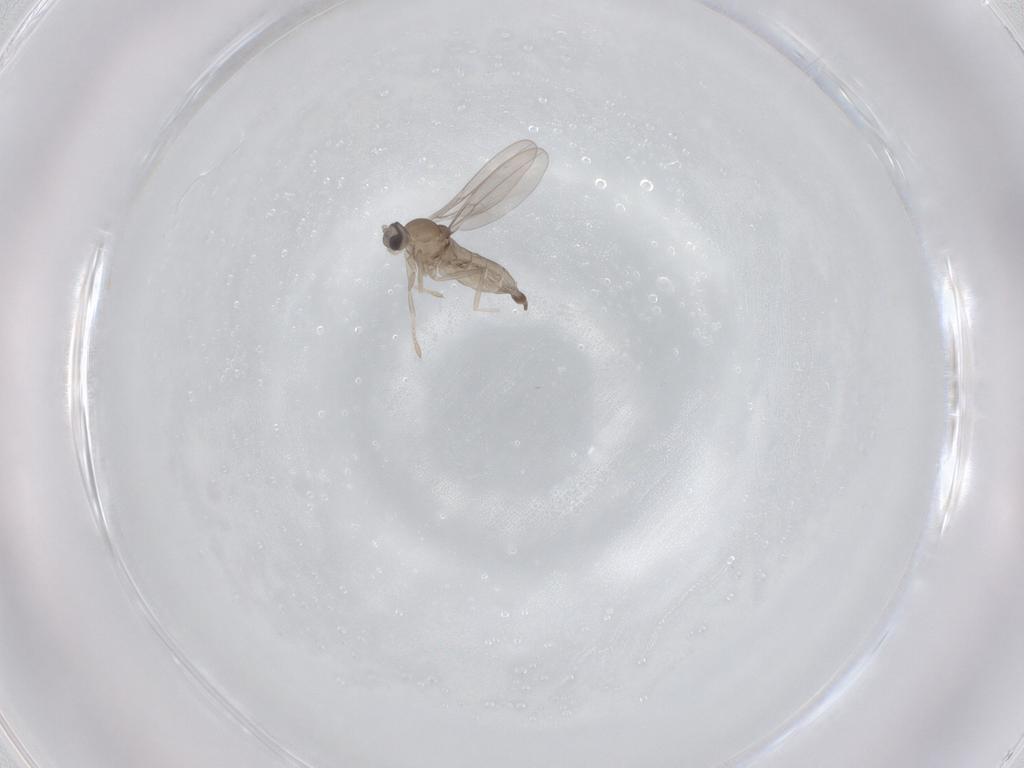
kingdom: Animalia
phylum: Arthropoda
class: Insecta
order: Diptera
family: Cecidomyiidae
